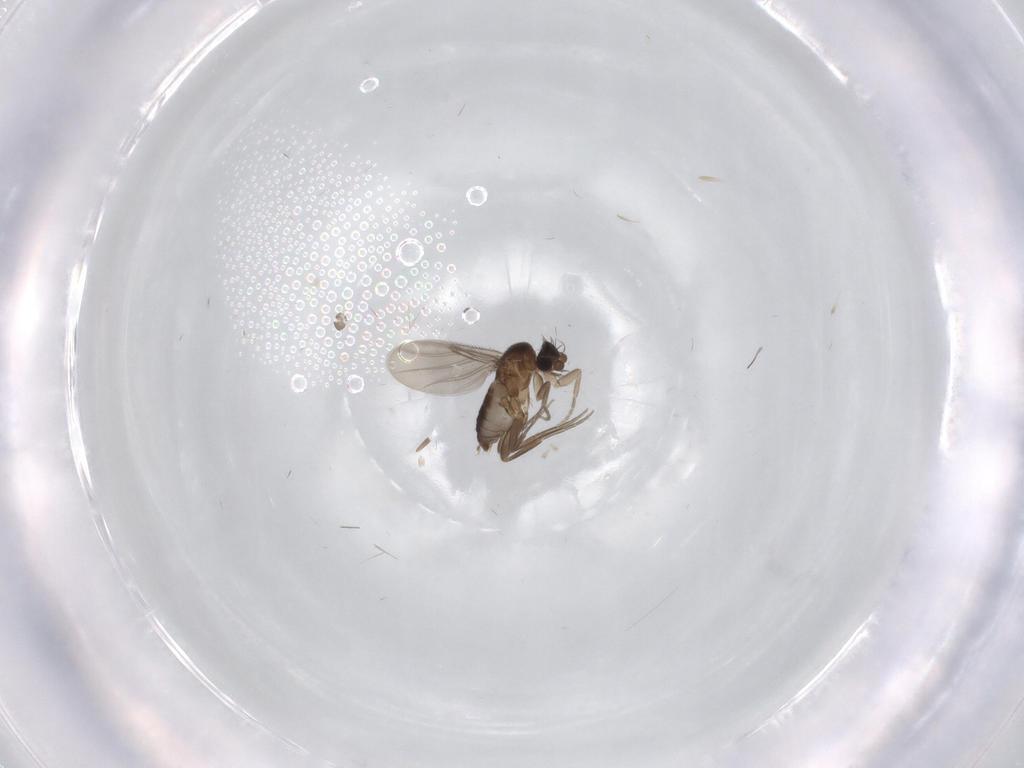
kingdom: Animalia
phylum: Arthropoda
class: Insecta
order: Diptera
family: Phoridae
